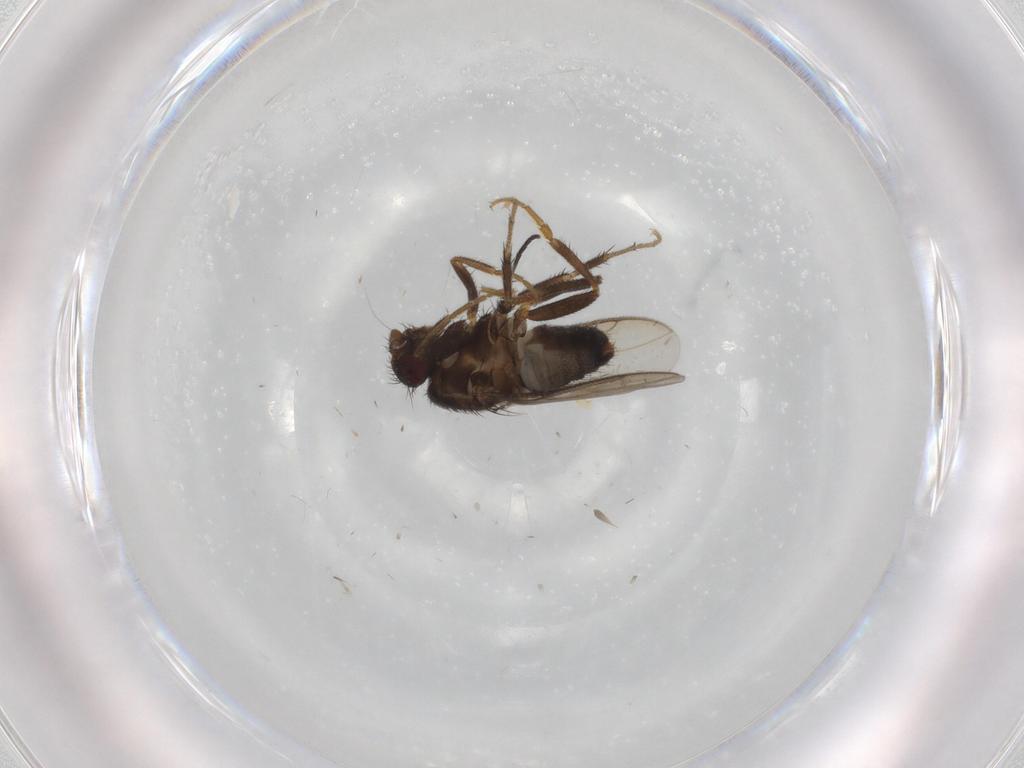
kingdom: Animalia
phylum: Arthropoda
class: Insecta
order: Diptera
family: Sphaeroceridae
